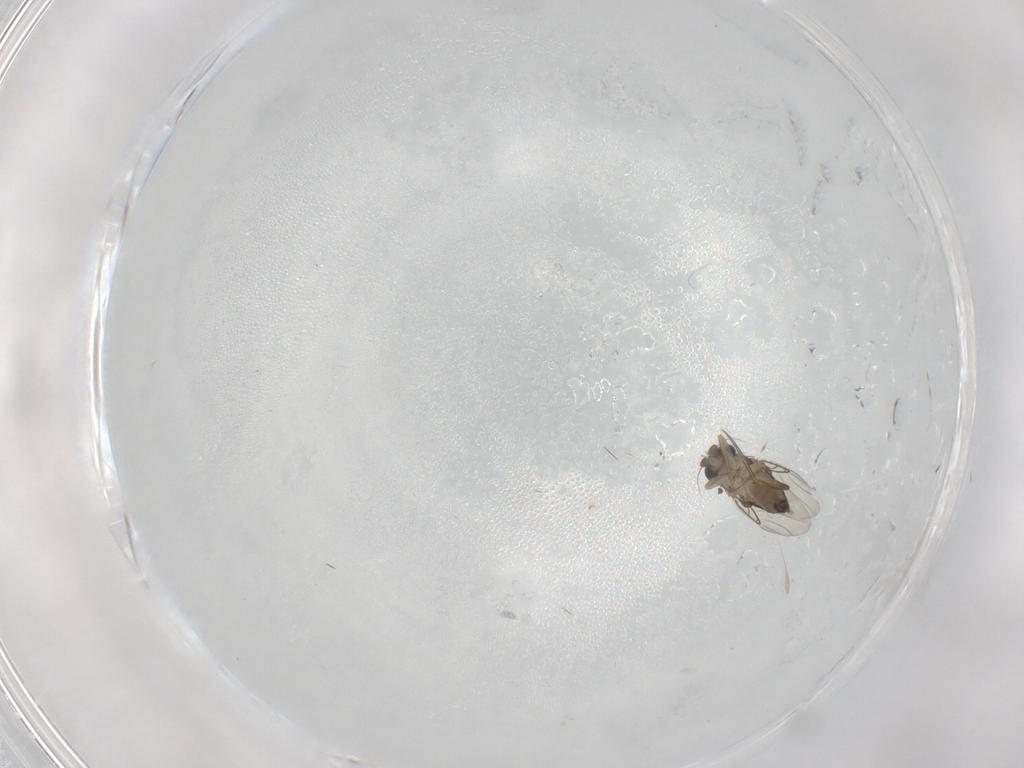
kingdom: Animalia
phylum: Arthropoda
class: Insecta
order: Diptera
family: Phoridae
